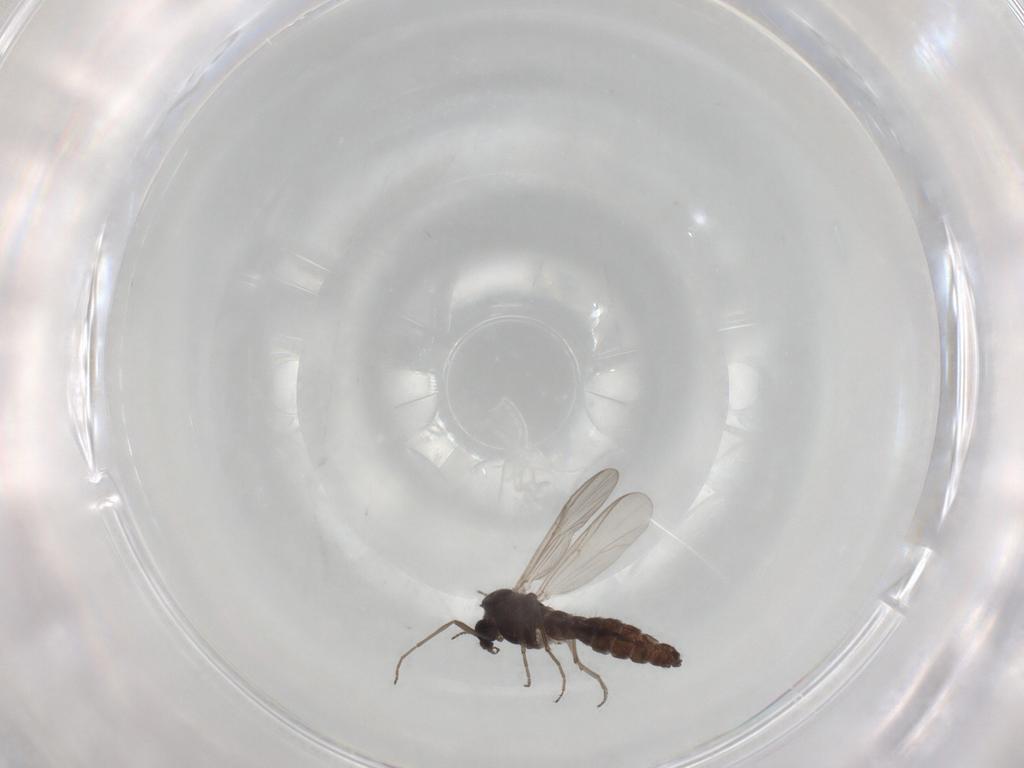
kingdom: Animalia
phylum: Arthropoda
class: Insecta
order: Diptera
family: Chironomidae
